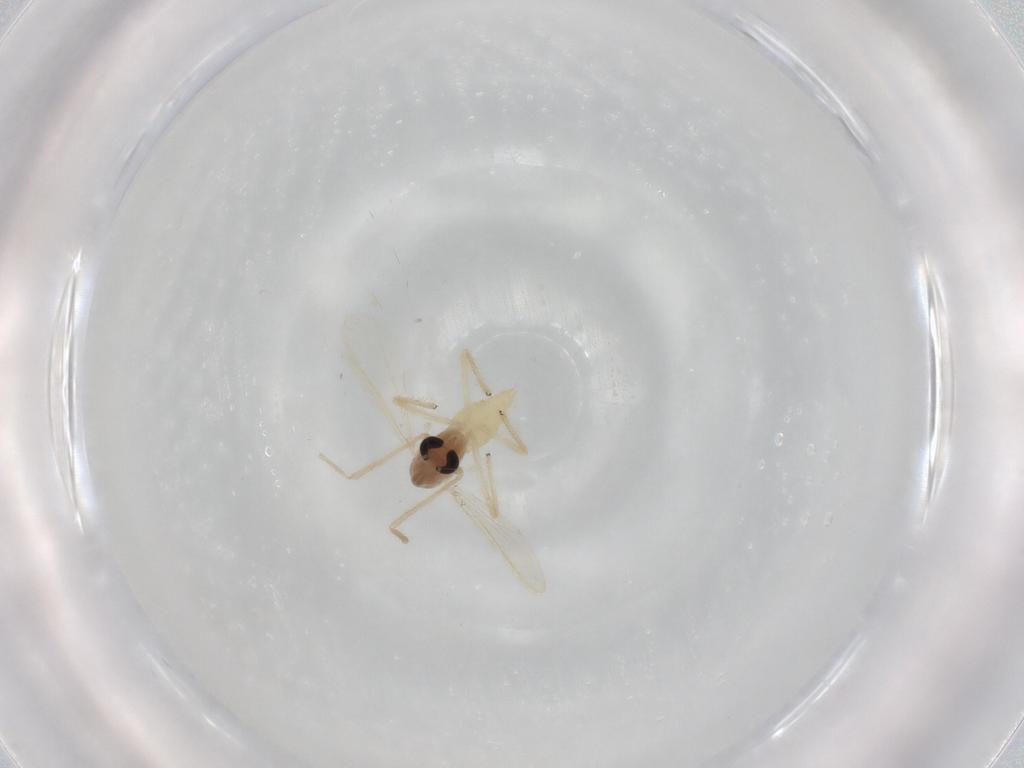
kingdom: Animalia
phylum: Arthropoda
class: Insecta
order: Diptera
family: Chironomidae
